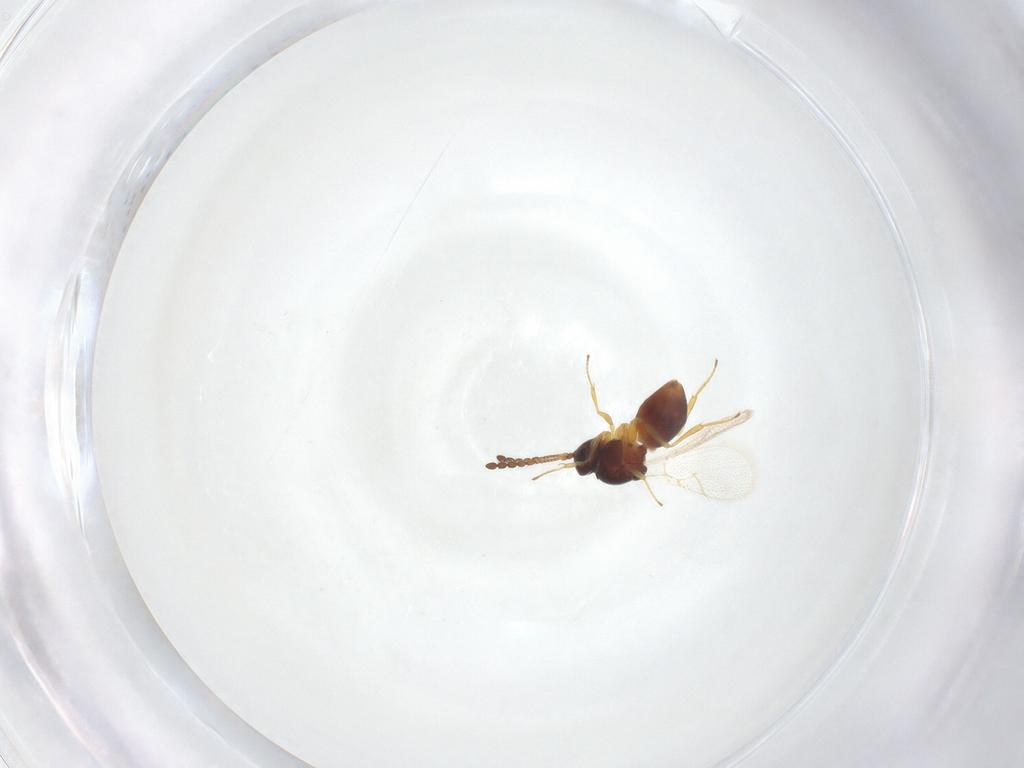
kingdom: Animalia
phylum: Arthropoda
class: Insecta
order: Hymenoptera
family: Figitidae
